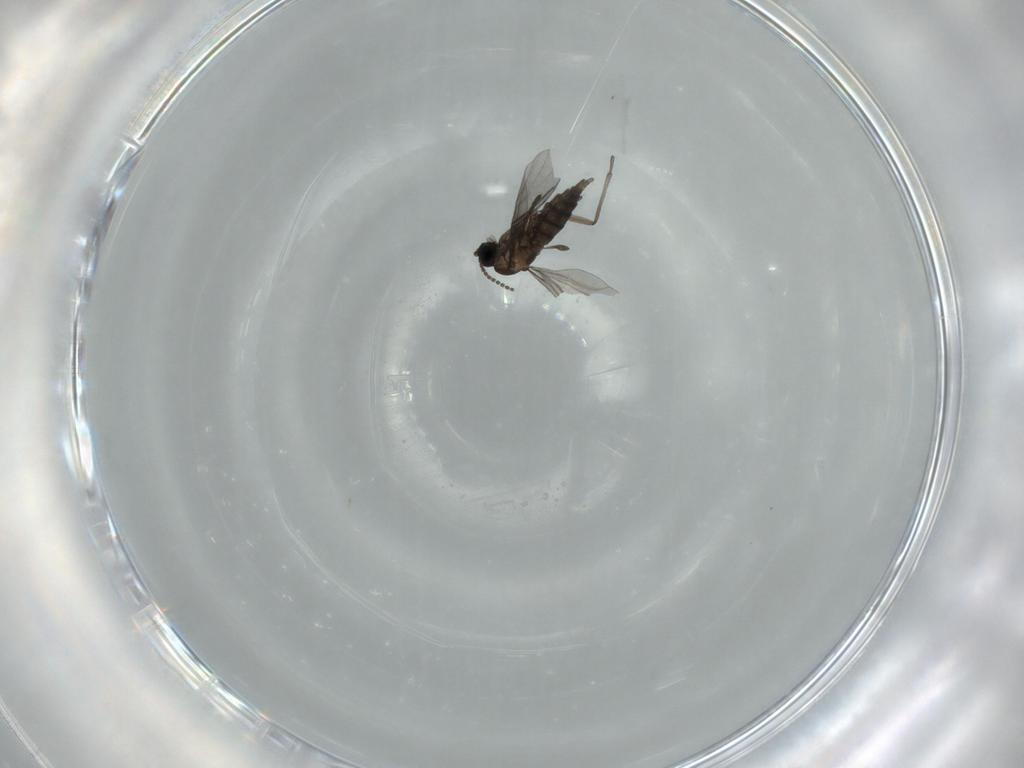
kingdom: Animalia
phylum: Arthropoda
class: Insecta
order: Diptera
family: Sciaridae
